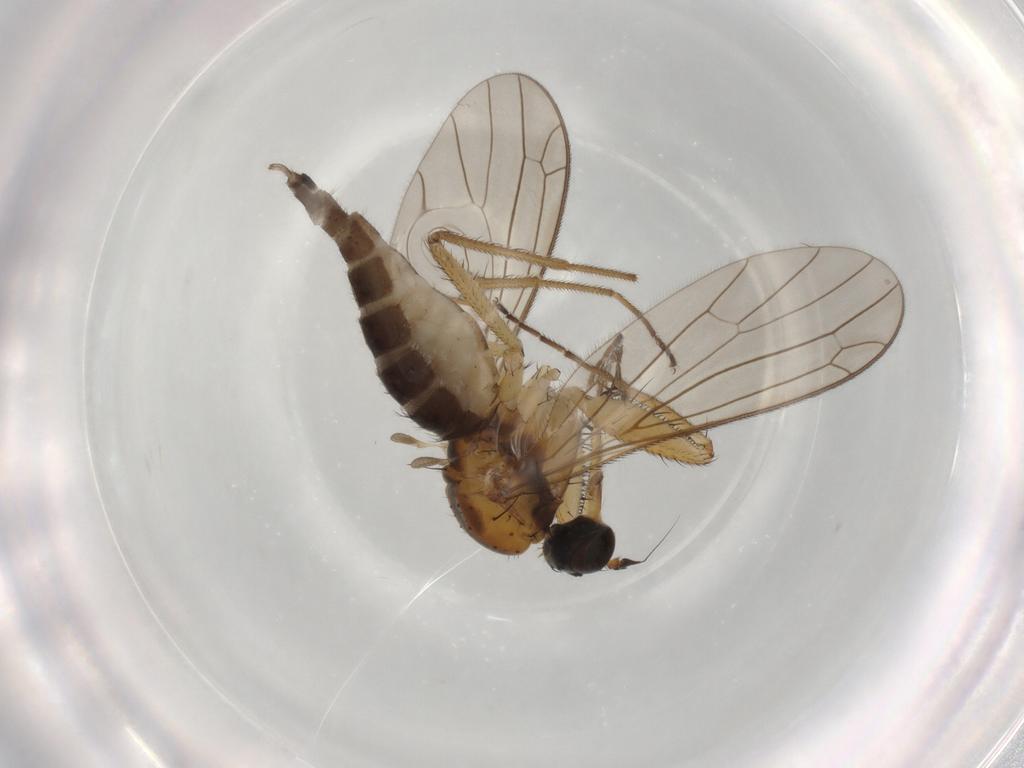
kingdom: Animalia
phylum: Arthropoda
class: Insecta
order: Diptera
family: Chironomidae
